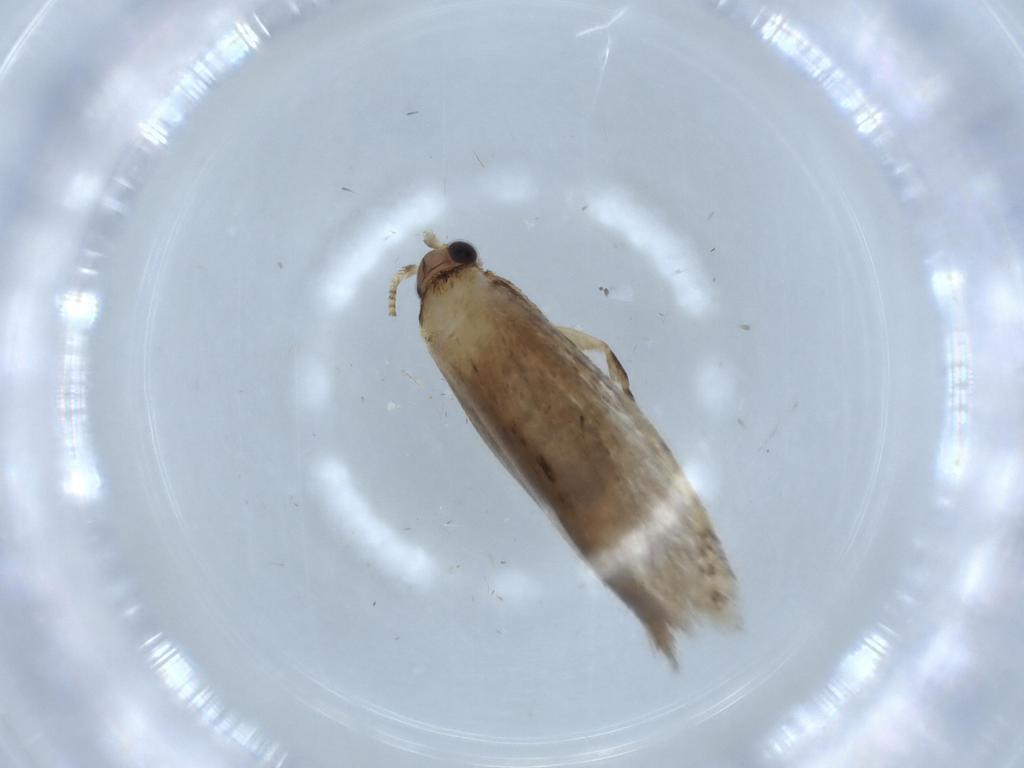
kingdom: Animalia
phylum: Arthropoda
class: Insecta
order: Lepidoptera
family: Tineidae
